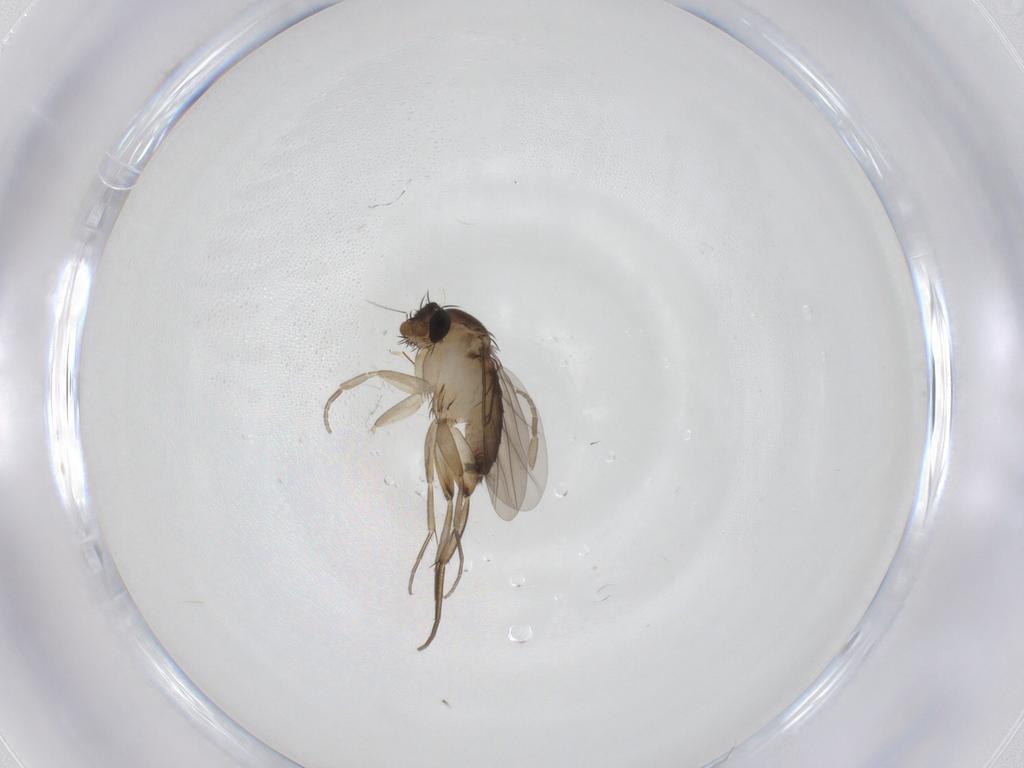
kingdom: Animalia
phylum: Arthropoda
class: Insecta
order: Diptera
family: Phoridae
